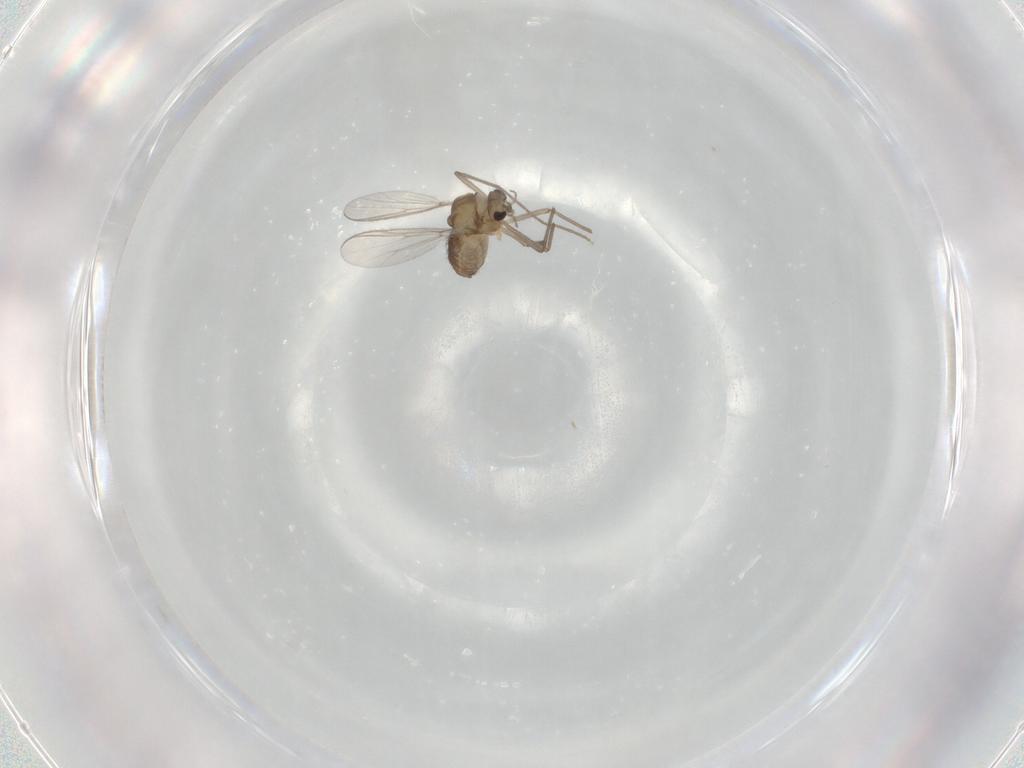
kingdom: Animalia
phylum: Arthropoda
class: Insecta
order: Diptera
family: Chironomidae
